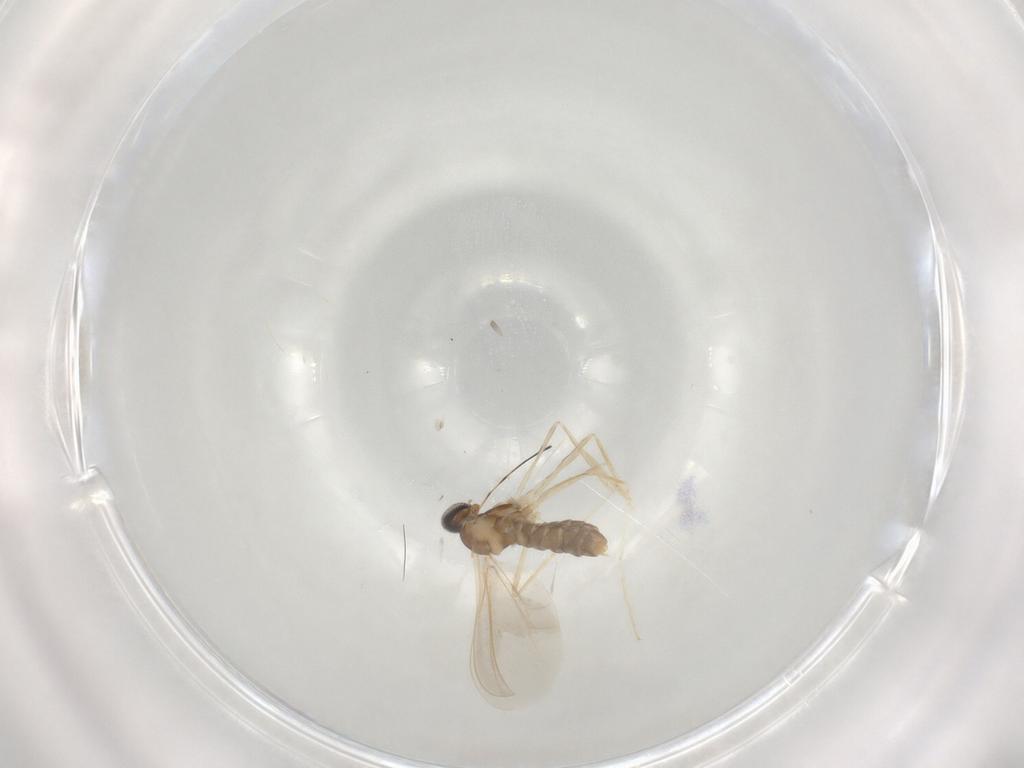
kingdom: Animalia
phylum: Arthropoda
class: Insecta
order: Diptera
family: Cecidomyiidae
